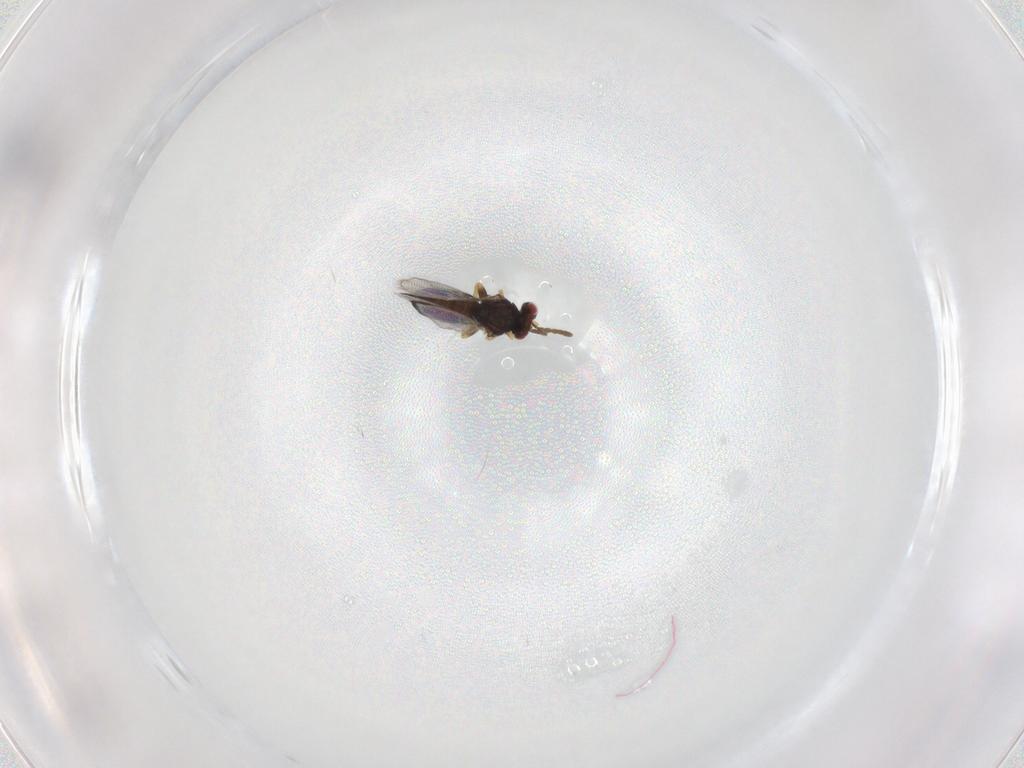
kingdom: Animalia
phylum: Arthropoda
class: Insecta
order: Hymenoptera
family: Eulophidae
